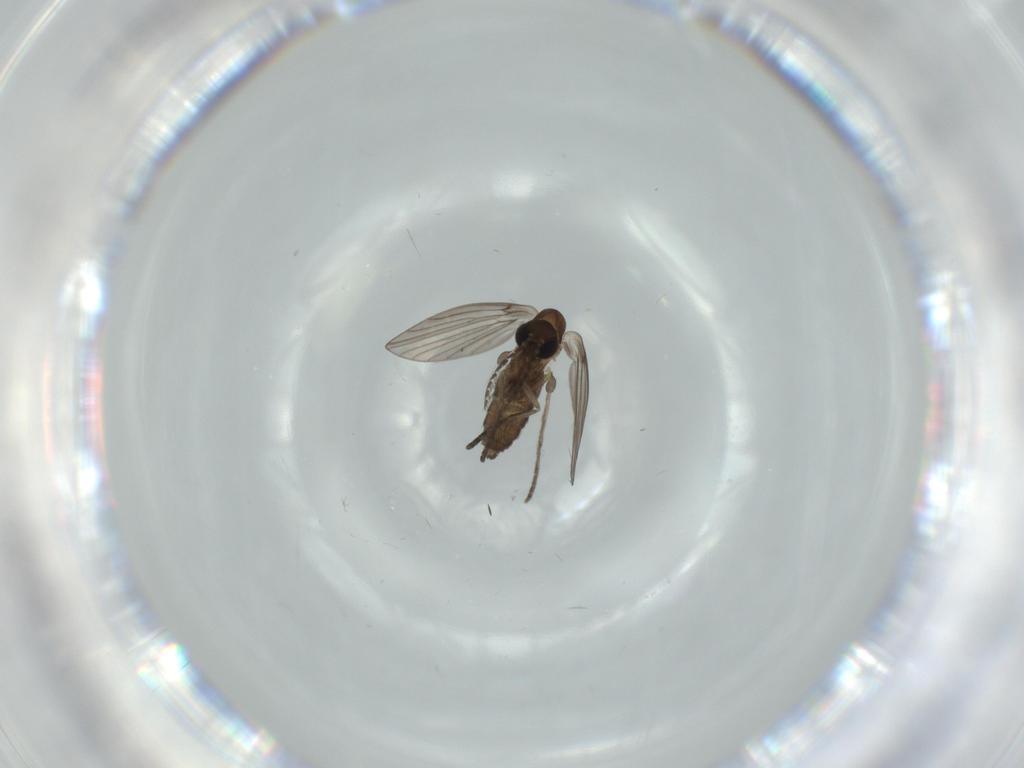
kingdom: Animalia
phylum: Arthropoda
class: Insecta
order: Diptera
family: Psychodidae
